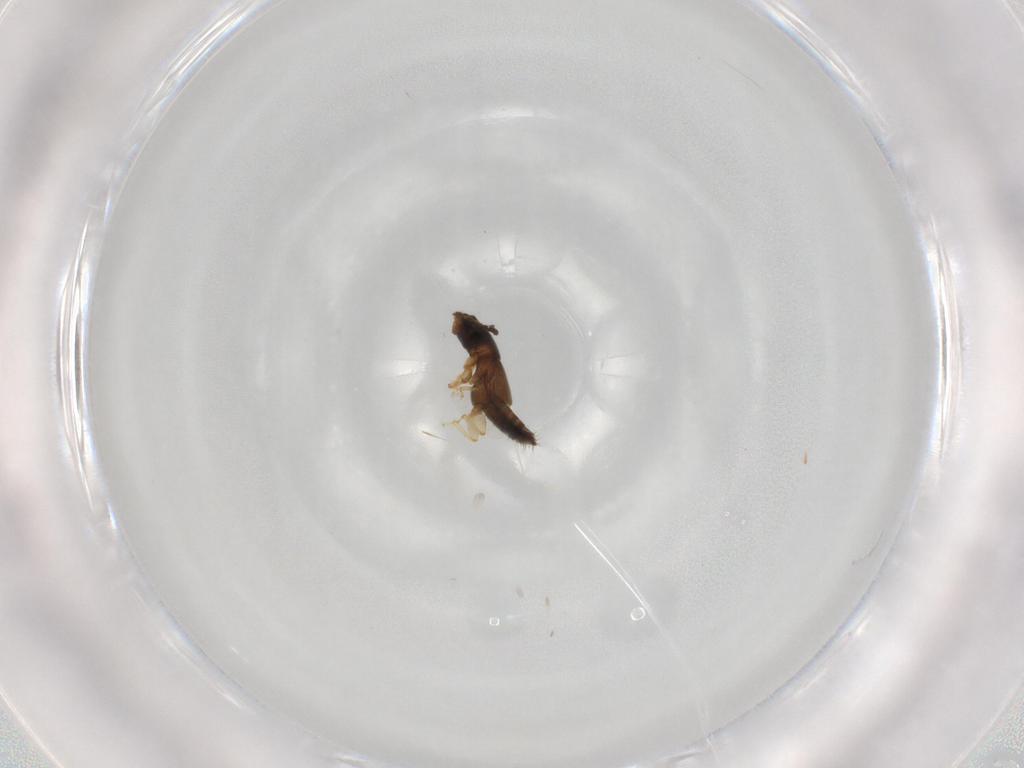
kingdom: Animalia
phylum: Arthropoda
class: Insecta
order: Coleoptera
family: Staphylinidae
